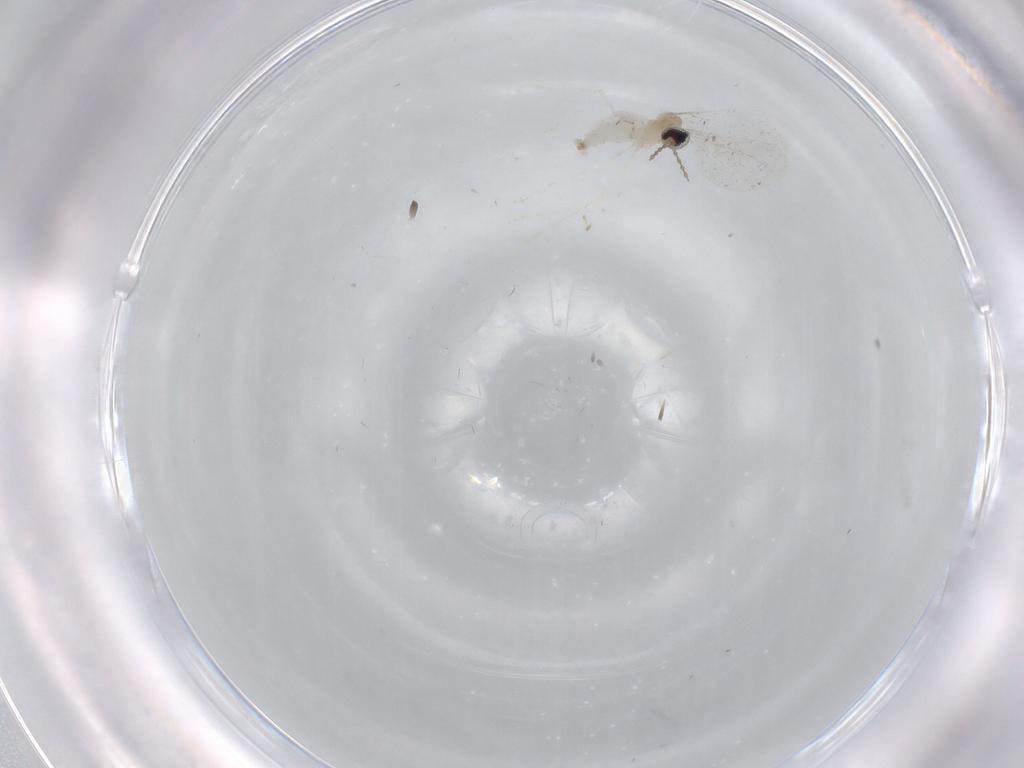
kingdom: Animalia
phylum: Arthropoda
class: Insecta
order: Diptera
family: Cecidomyiidae
